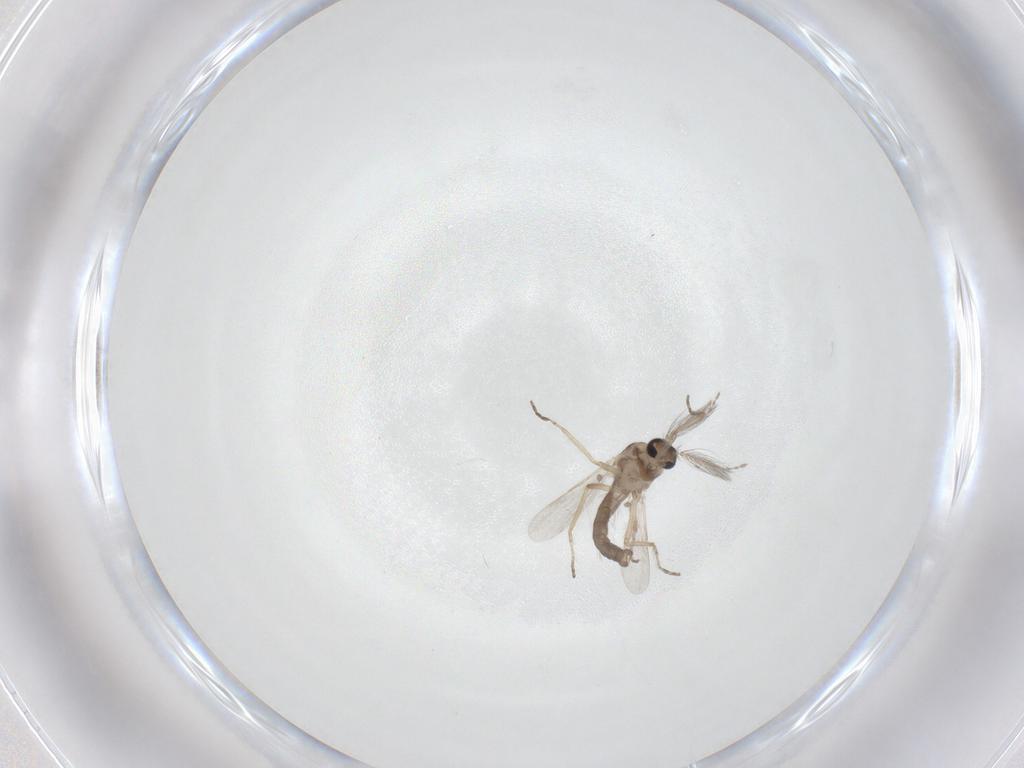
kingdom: Animalia
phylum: Arthropoda
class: Insecta
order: Diptera
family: Ceratopogonidae
